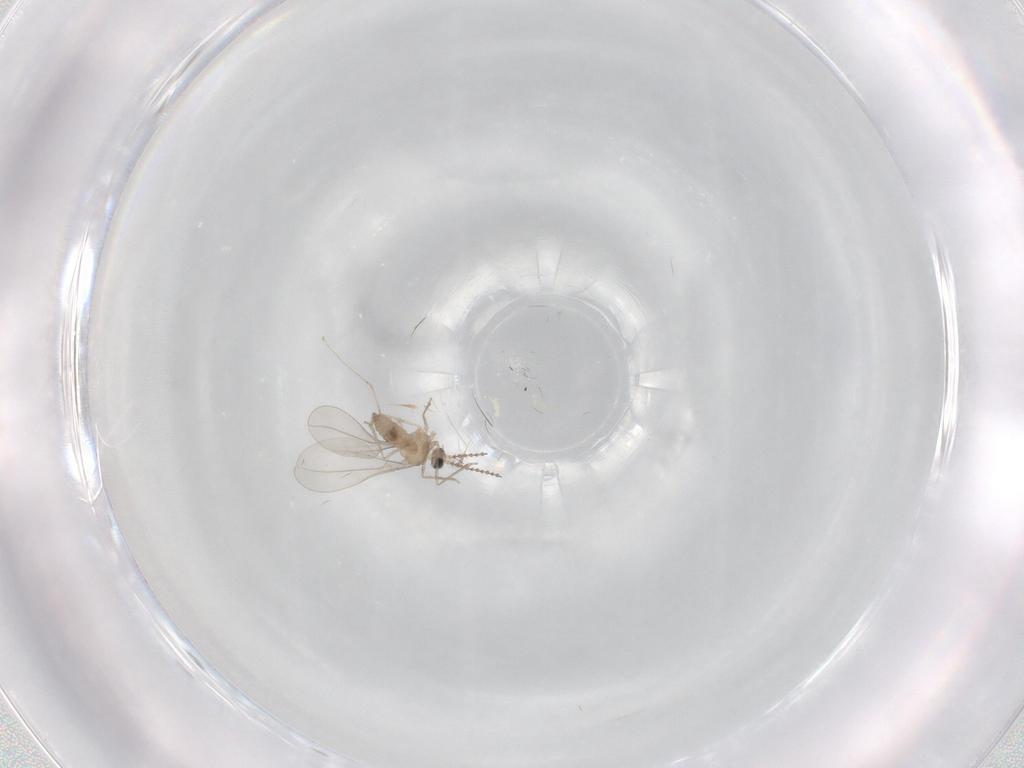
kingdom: Animalia
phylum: Arthropoda
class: Insecta
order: Diptera
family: Cecidomyiidae
